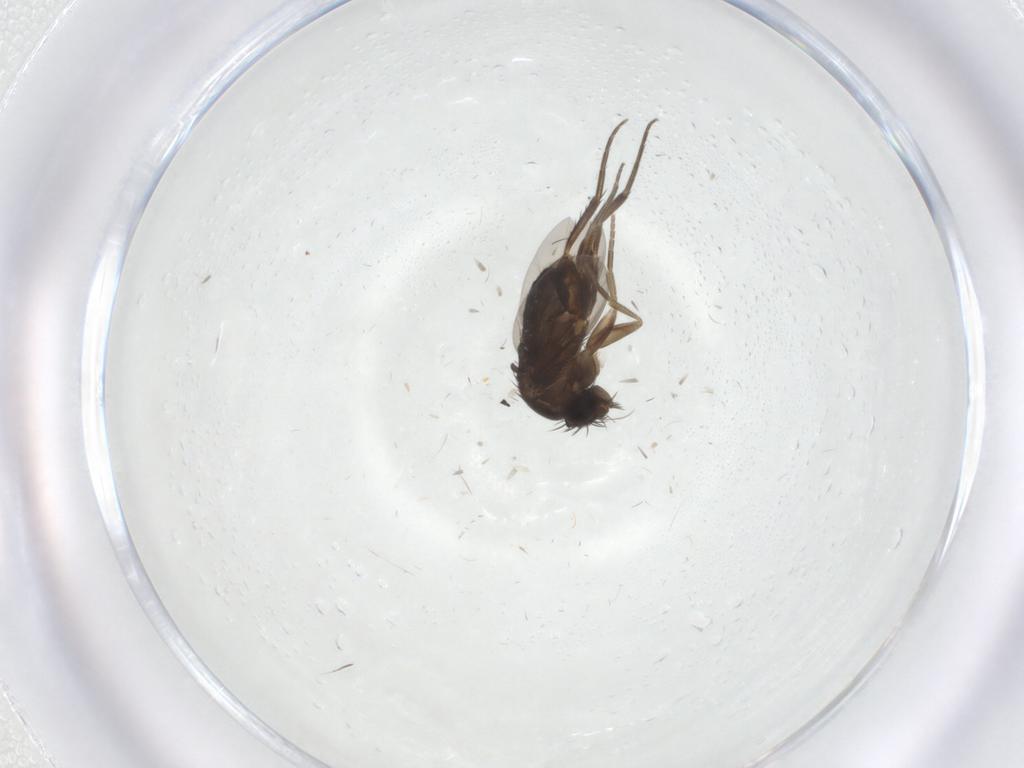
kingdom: Animalia
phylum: Arthropoda
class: Insecta
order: Diptera
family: Phoridae
